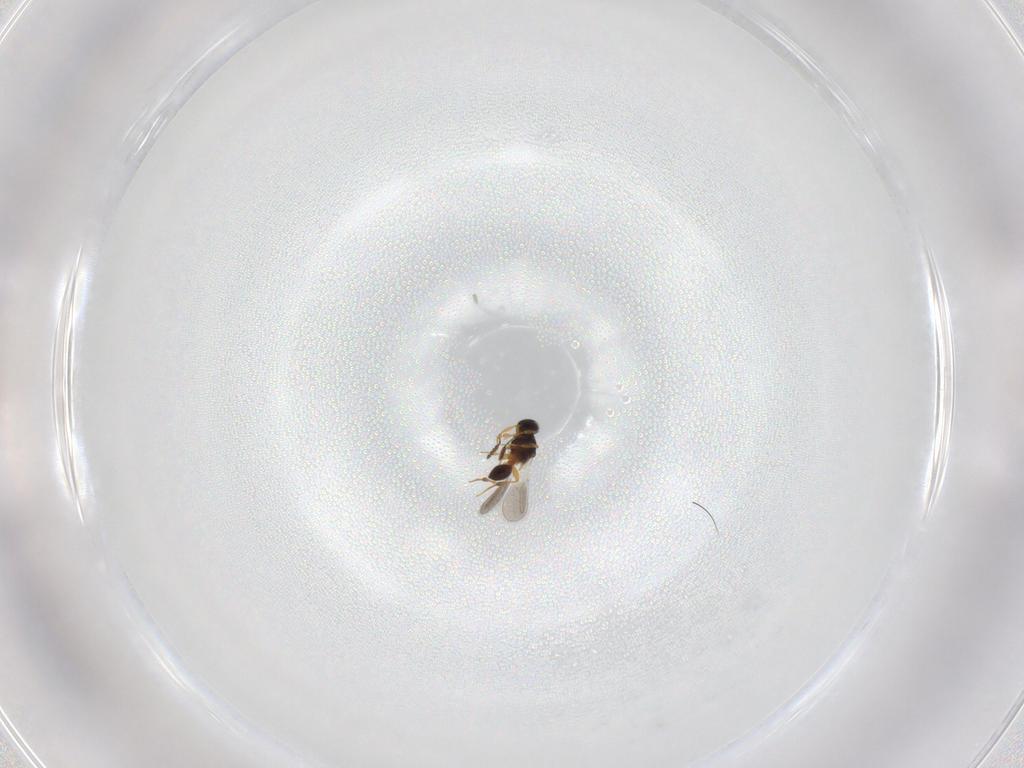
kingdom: Animalia
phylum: Arthropoda
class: Insecta
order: Hymenoptera
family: Platygastridae
